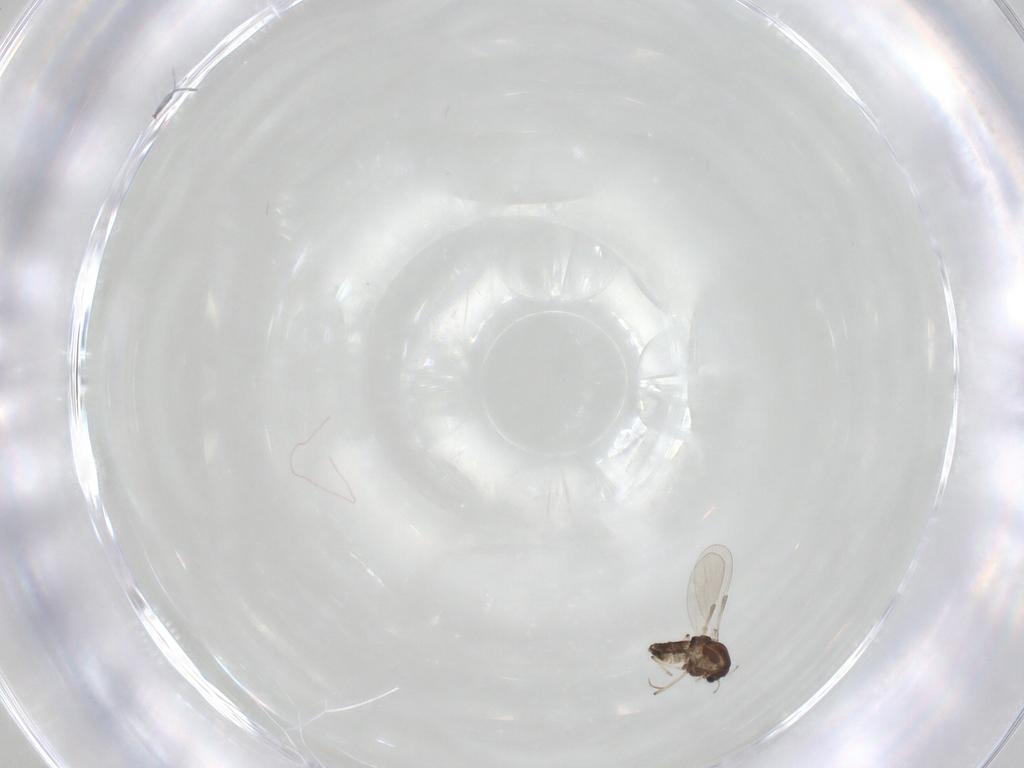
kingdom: Animalia
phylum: Arthropoda
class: Insecta
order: Diptera
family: Chironomidae
